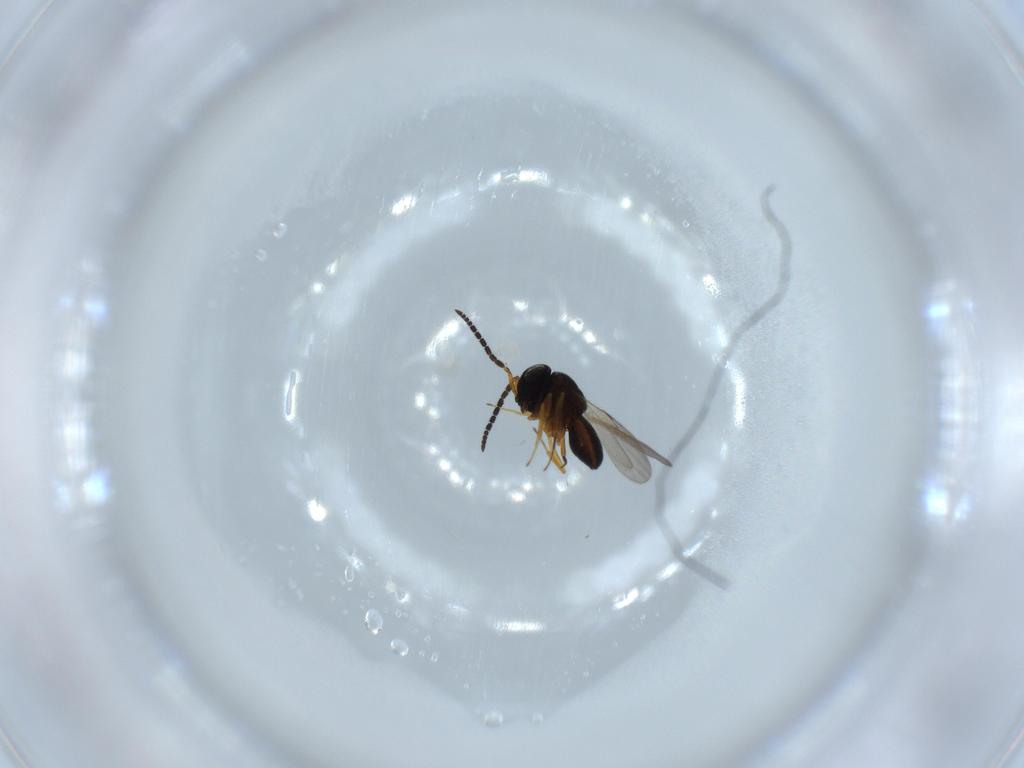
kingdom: Animalia
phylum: Arthropoda
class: Insecta
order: Coleoptera
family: Curculionidae
